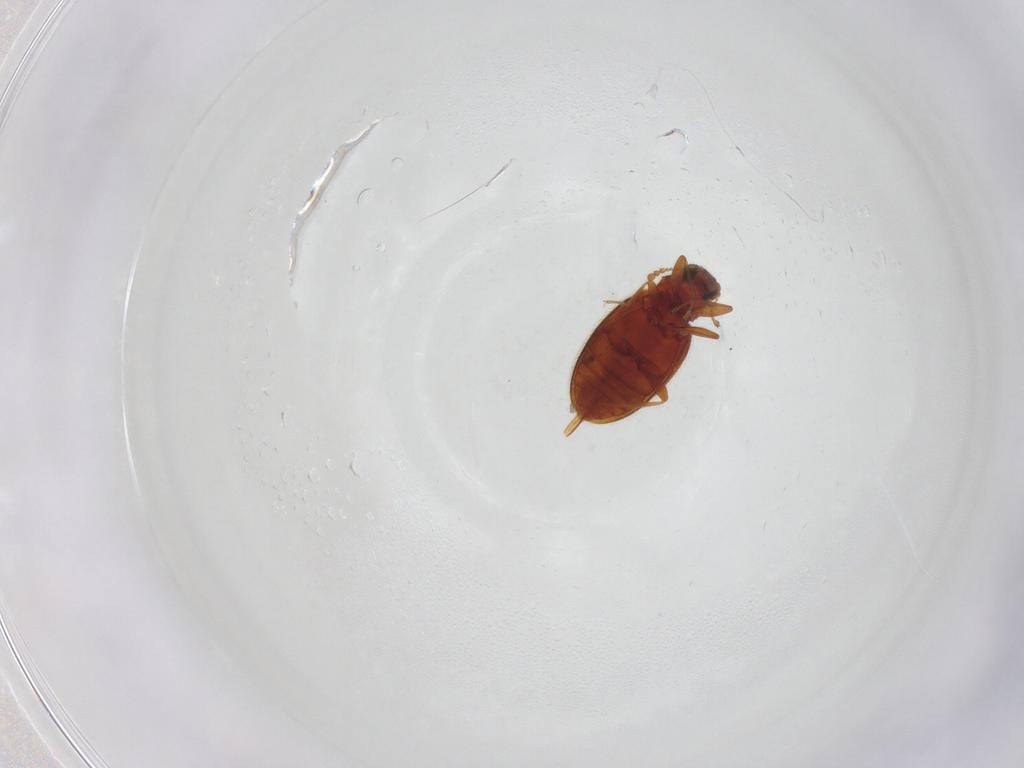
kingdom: Animalia
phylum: Arthropoda
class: Insecta
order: Coleoptera
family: Latridiidae
